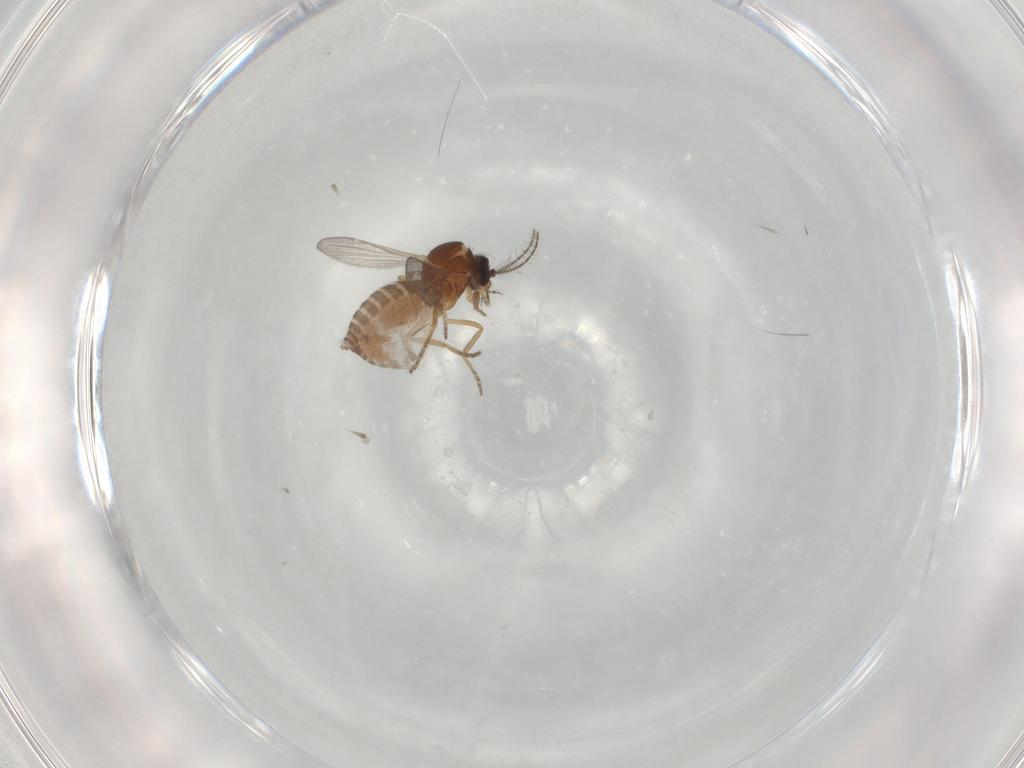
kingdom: Animalia
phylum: Arthropoda
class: Insecta
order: Diptera
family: Ceratopogonidae
